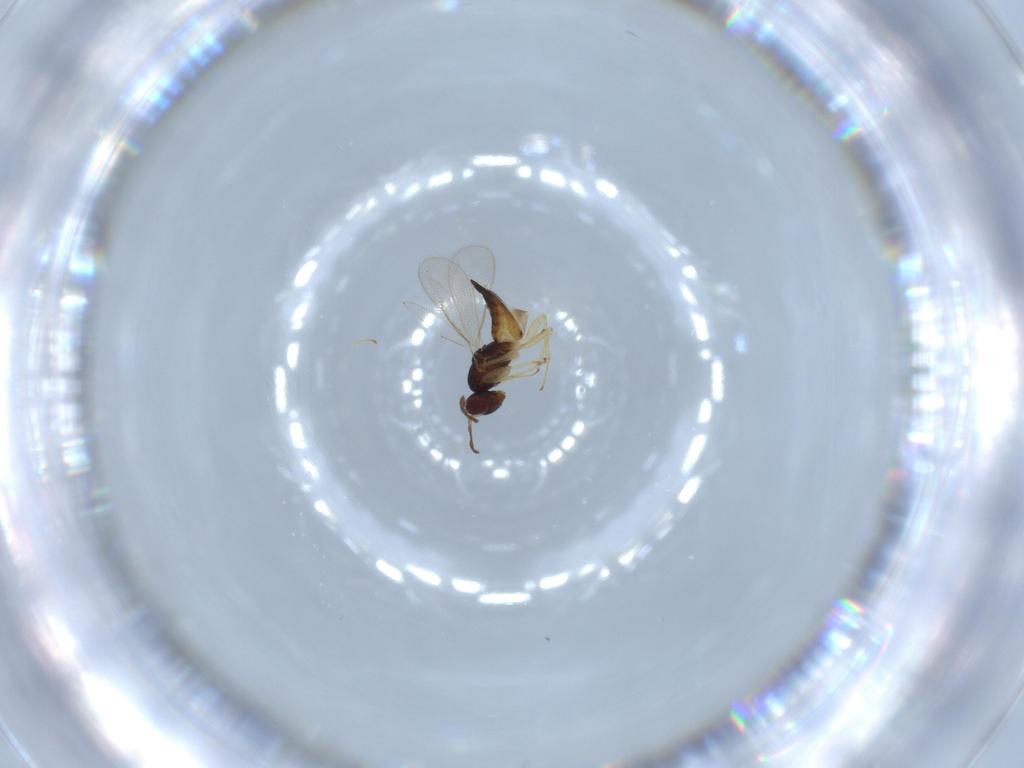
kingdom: Animalia
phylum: Arthropoda
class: Insecta
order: Hymenoptera
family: Eulophidae
